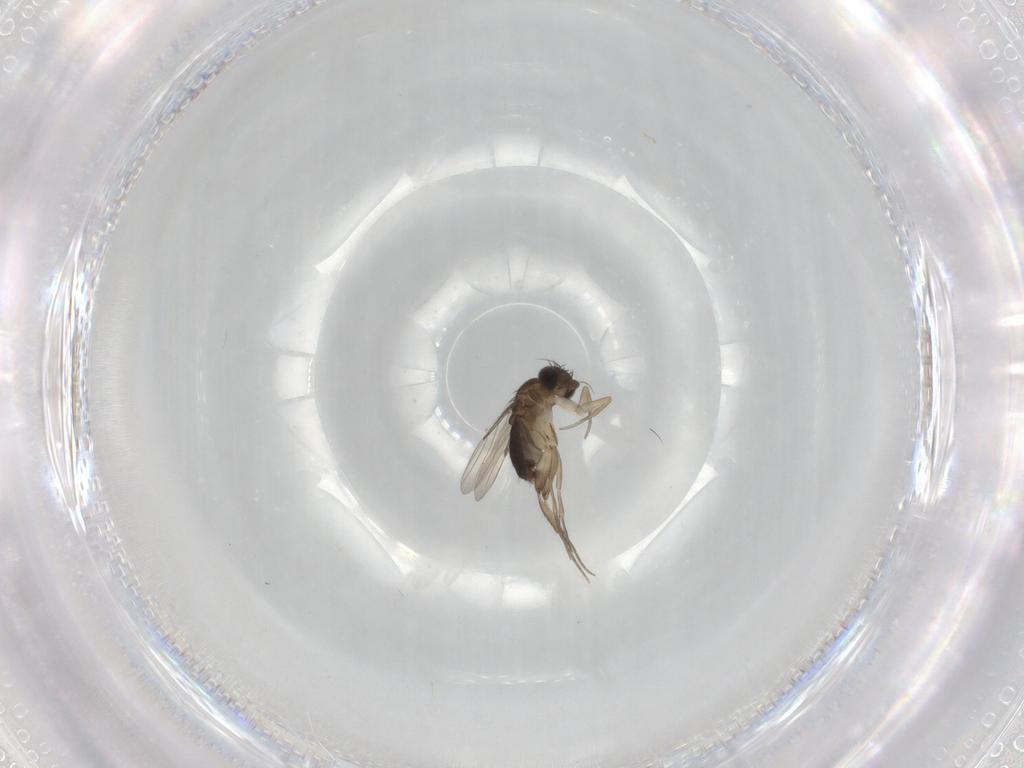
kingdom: Animalia
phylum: Arthropoda
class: Insecta
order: Diptera
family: Phoridae
